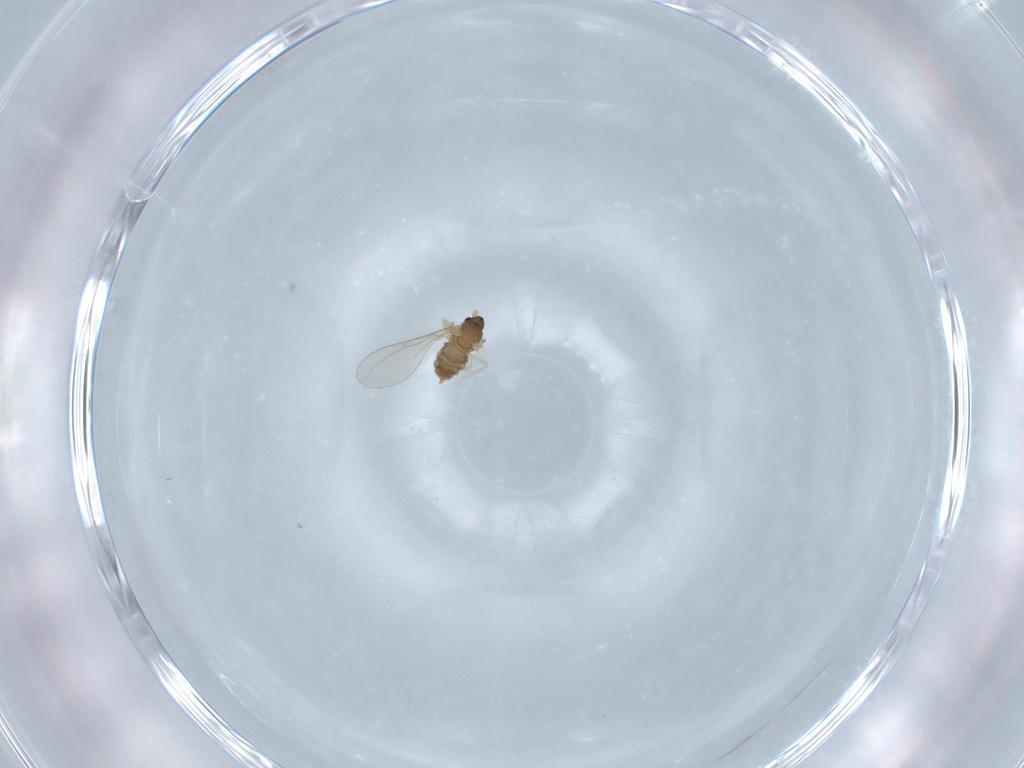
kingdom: Animalia
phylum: Arthropoda
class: Insecta
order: Diptera
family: Cecidomyiidae
